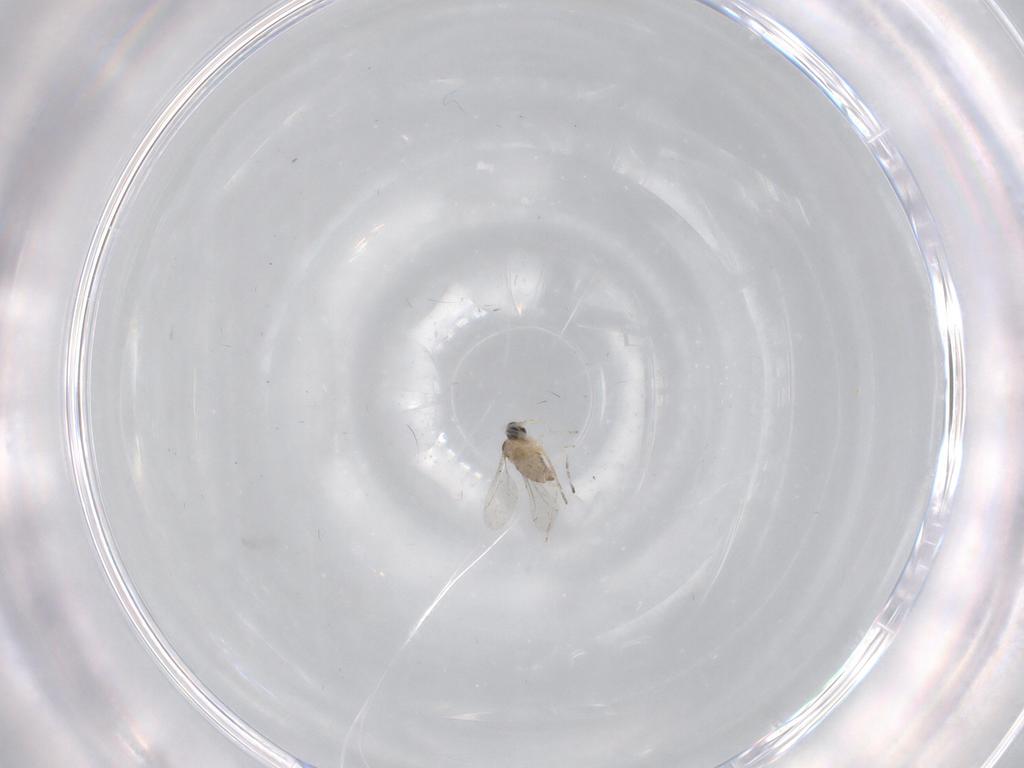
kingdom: Animalia
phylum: Arthropoda
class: Insecta
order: Diptera
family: Cecidomyiidae
